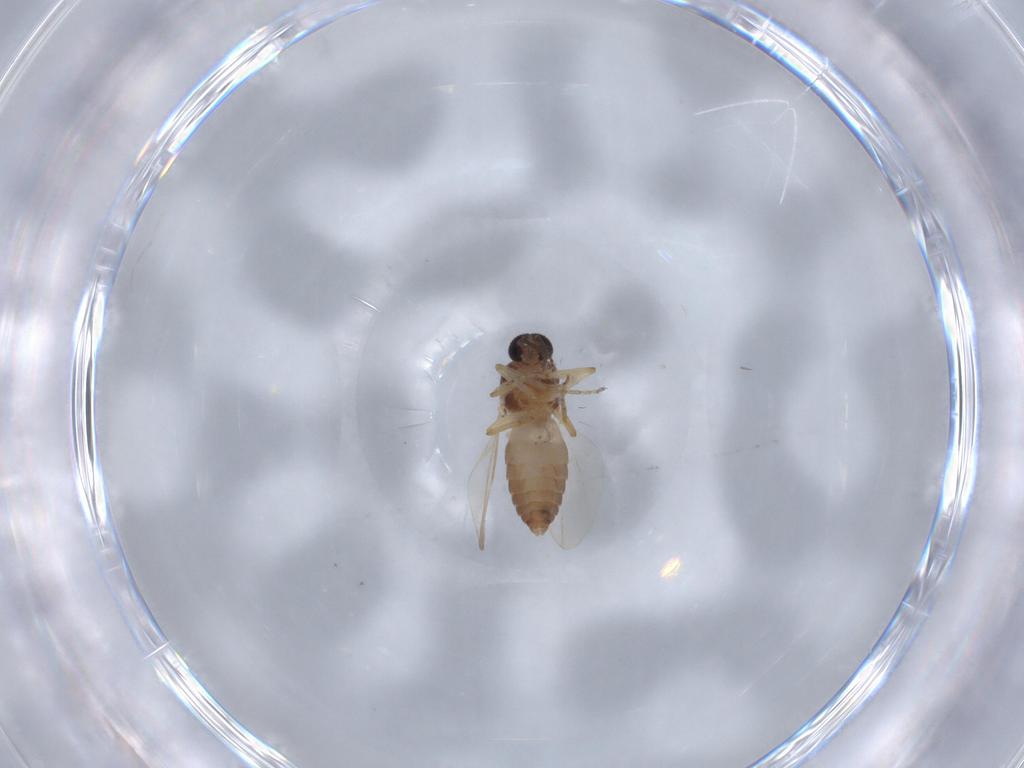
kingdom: Animalia
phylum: Arthropoda
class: Insecta
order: Diptera
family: Ceratopogonidae
